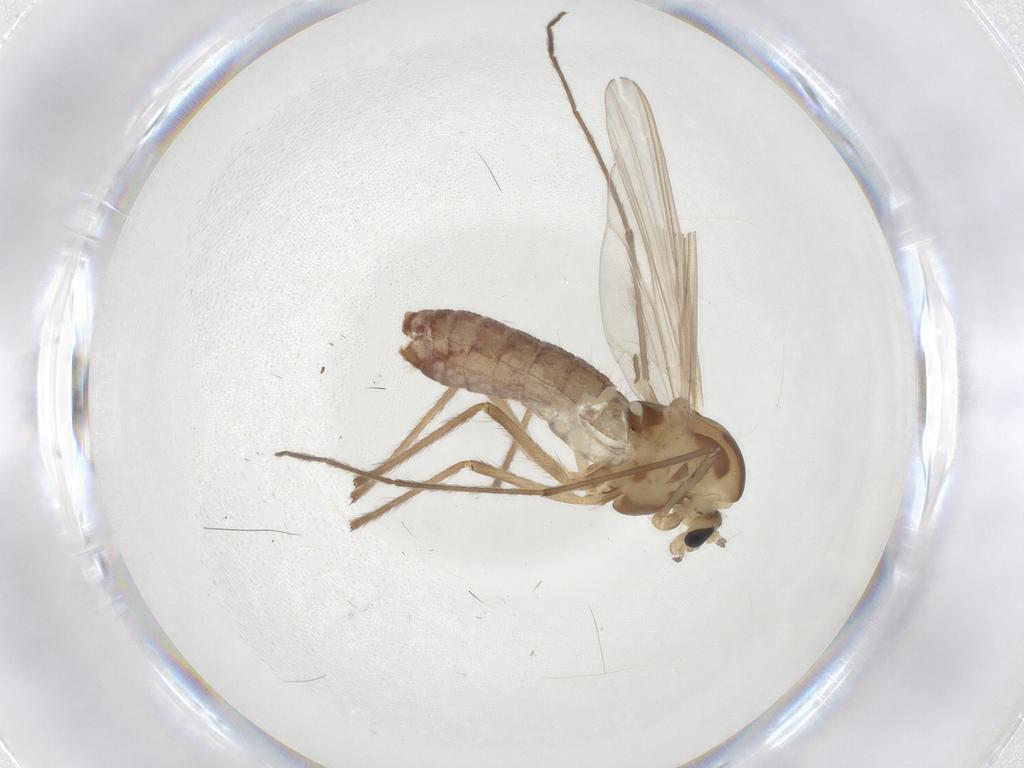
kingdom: Animalia
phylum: Arthropoda
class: Insecta
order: Diptera
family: Chironomidae
